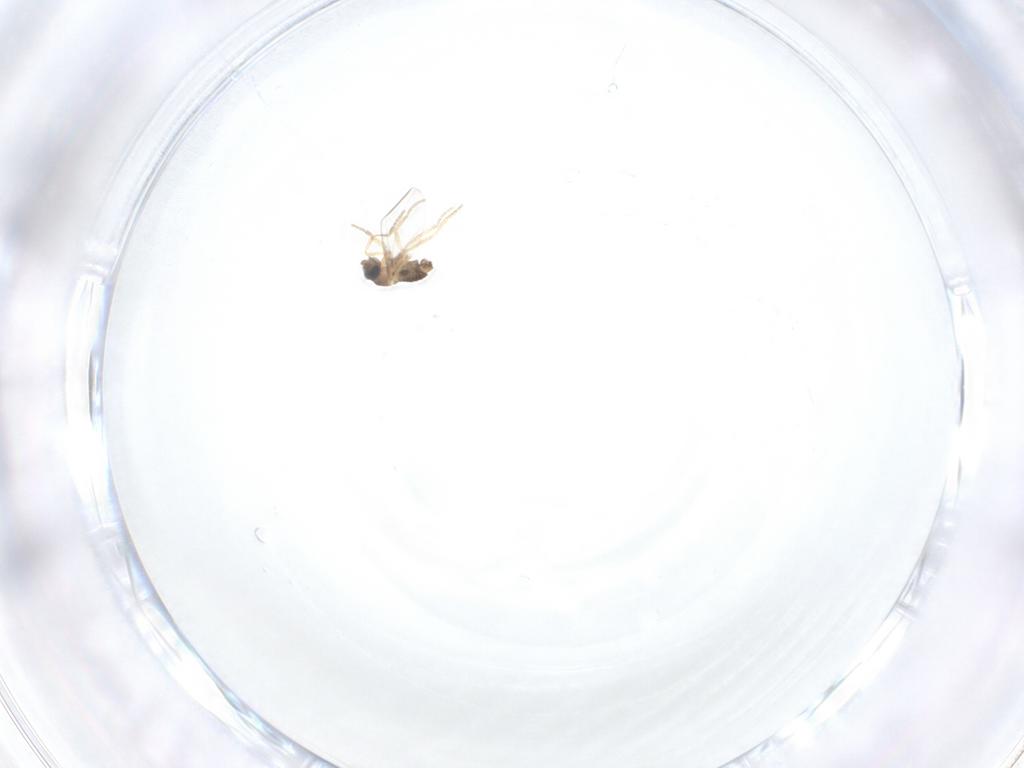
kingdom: Animalia
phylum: Arthropoda
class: Insecta
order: Diptera
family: Phoridae
